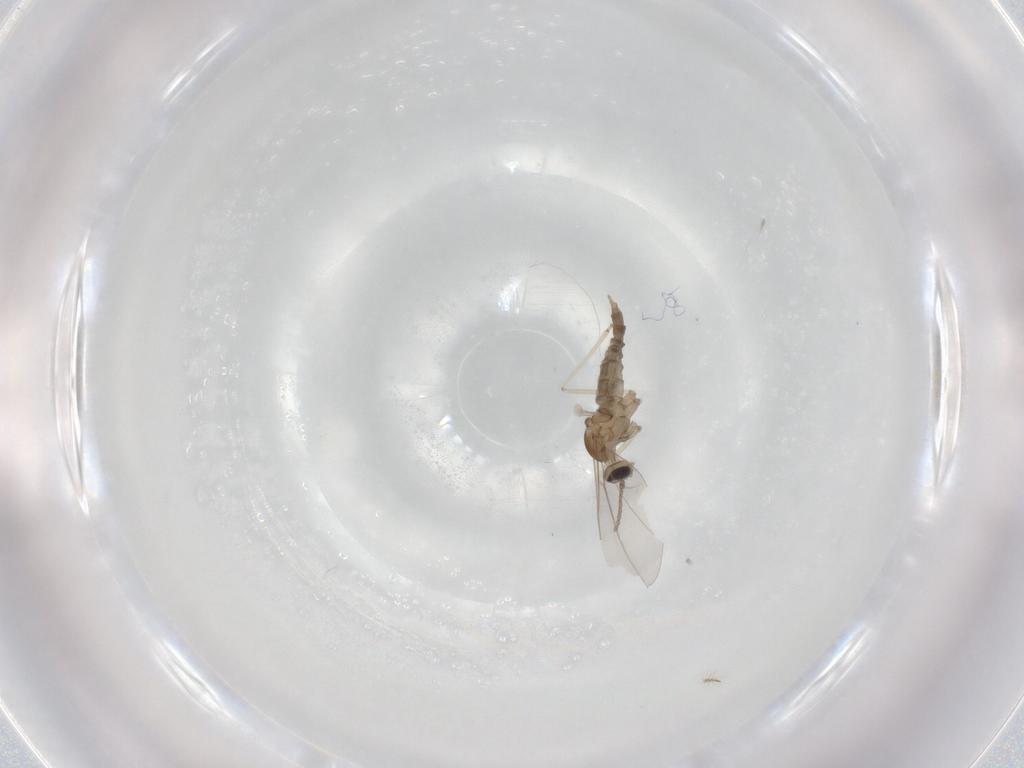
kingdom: Animalia
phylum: Arthropoda
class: Insecta
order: Diptera
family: Cecidomyiidae
